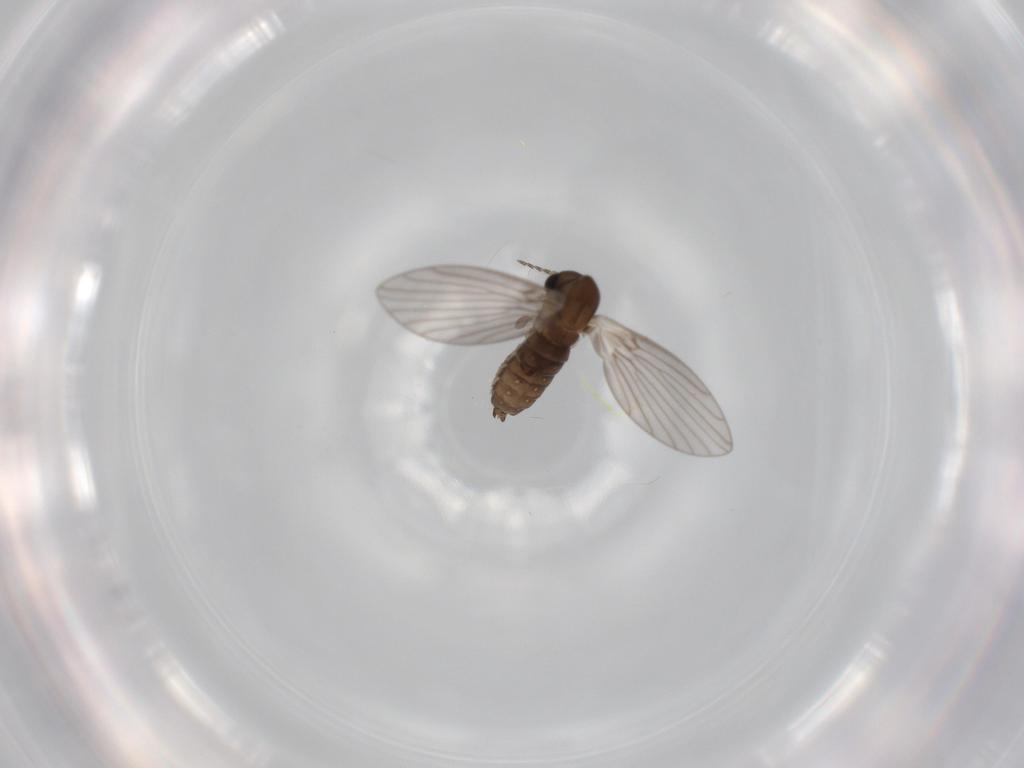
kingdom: Animalia
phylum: Arthropoda
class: Insecta
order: Diptera
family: Psychodidae
